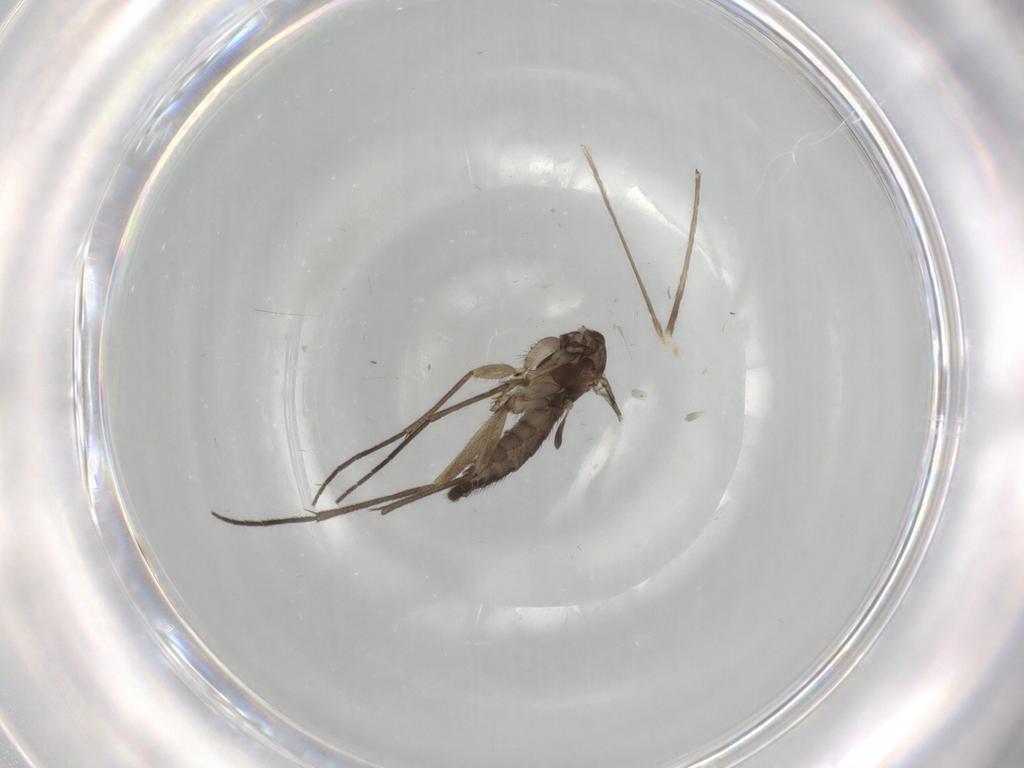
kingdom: Animalia
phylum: Arthropoda
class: Insecta
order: Diptera
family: Sciaridae
